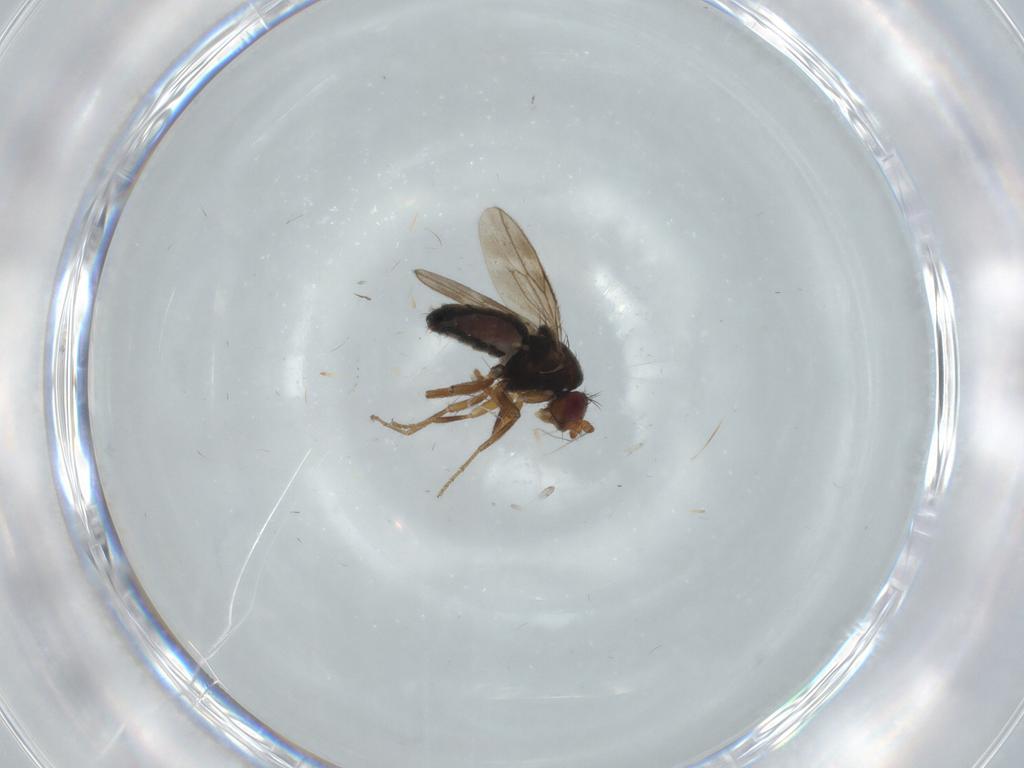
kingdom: Animalia
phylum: Arthropoda
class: Insecta
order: Diptera
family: Sphaeroceridae
